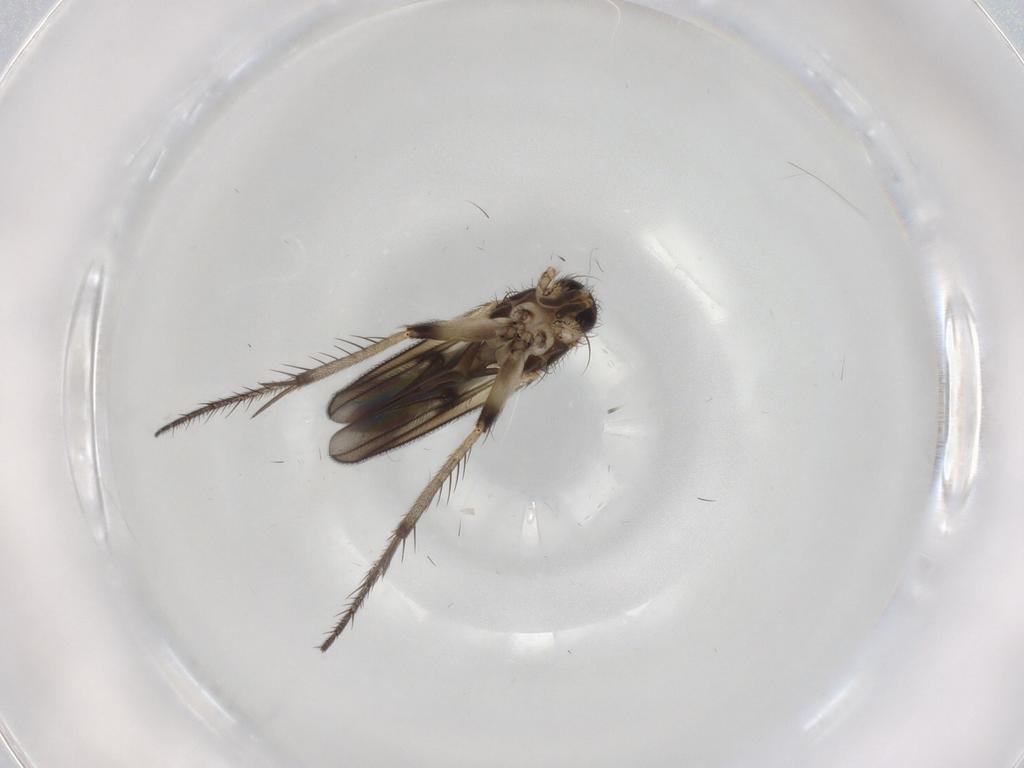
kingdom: Animalia
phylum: Arthropoda
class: Insecta
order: Diptera
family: Mycetophilidae
